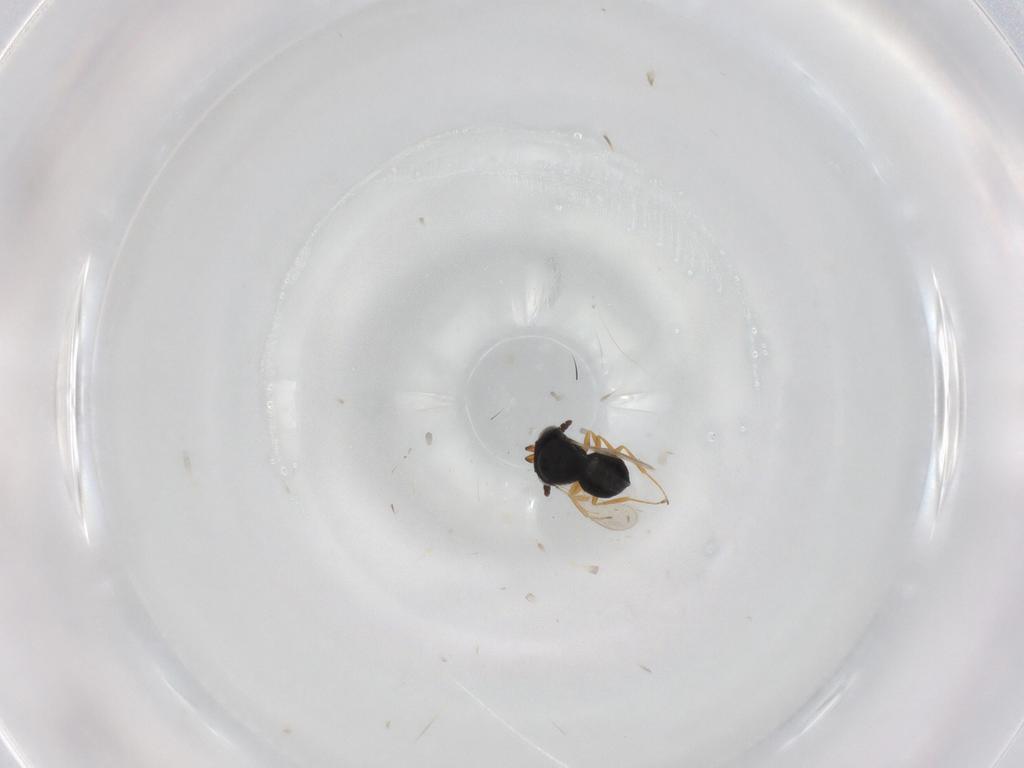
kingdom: Animalia
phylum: Arthropoda
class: Insecta
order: Hymenoptera
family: Scelionidae
